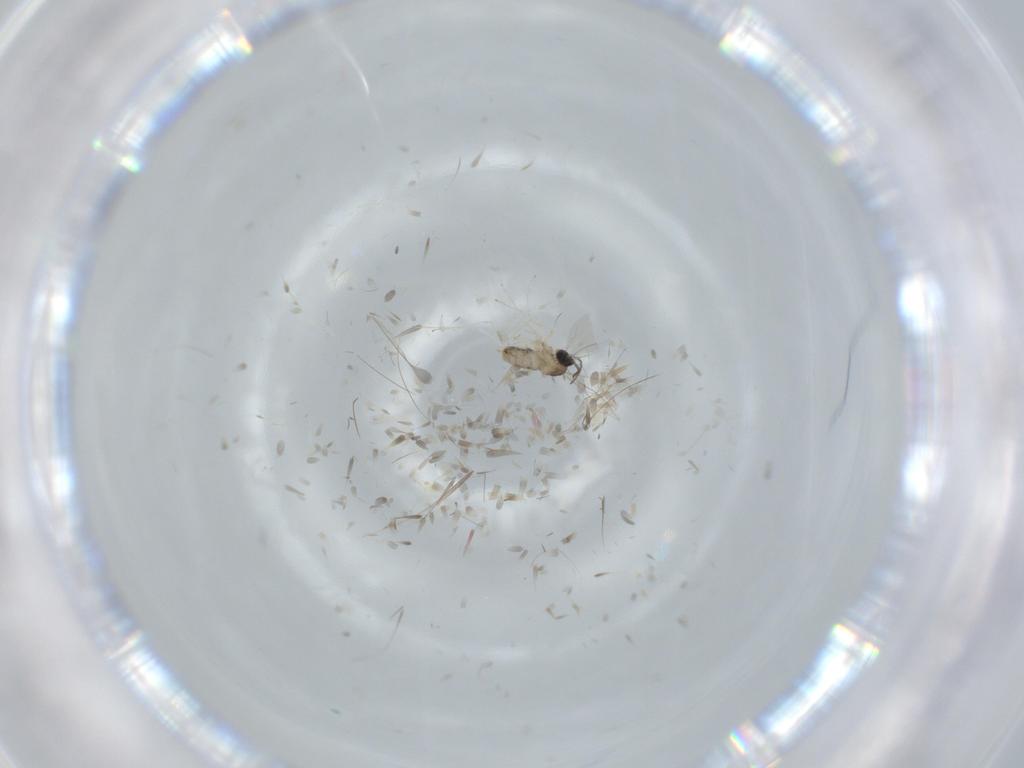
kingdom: Animalia
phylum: Arthropoda
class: Insecta
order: Diptera
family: Cecidomyiidae
